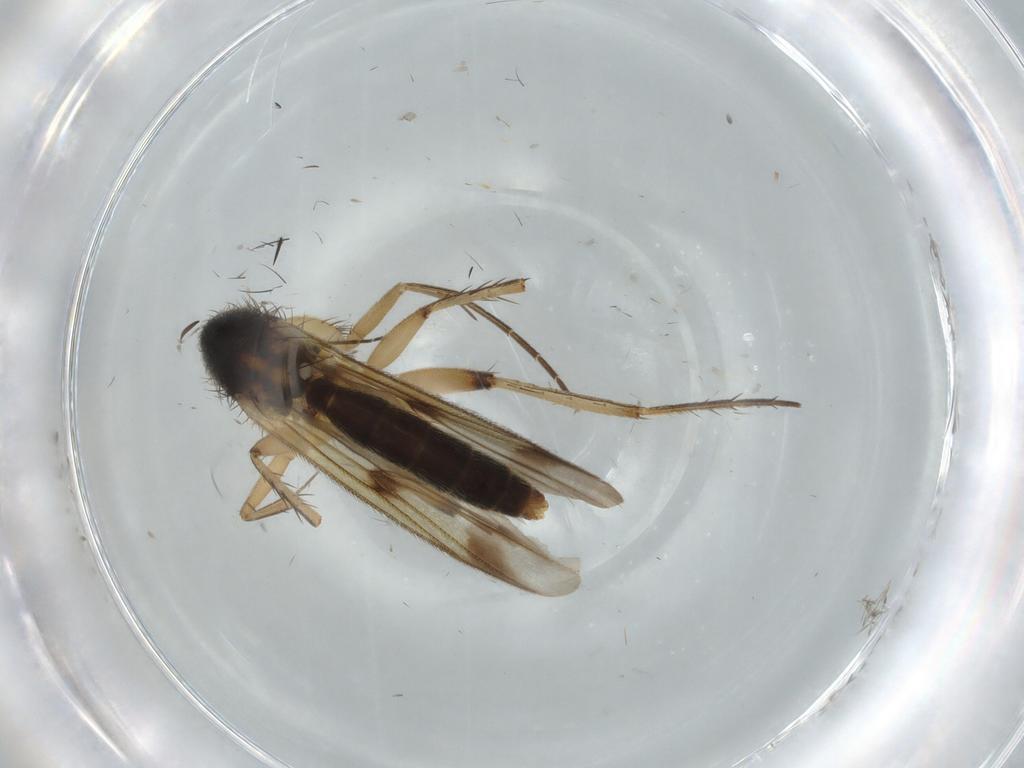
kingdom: Animalia
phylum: Arthropoda
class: Insecta
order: Diptera
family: Mycetophilidae
